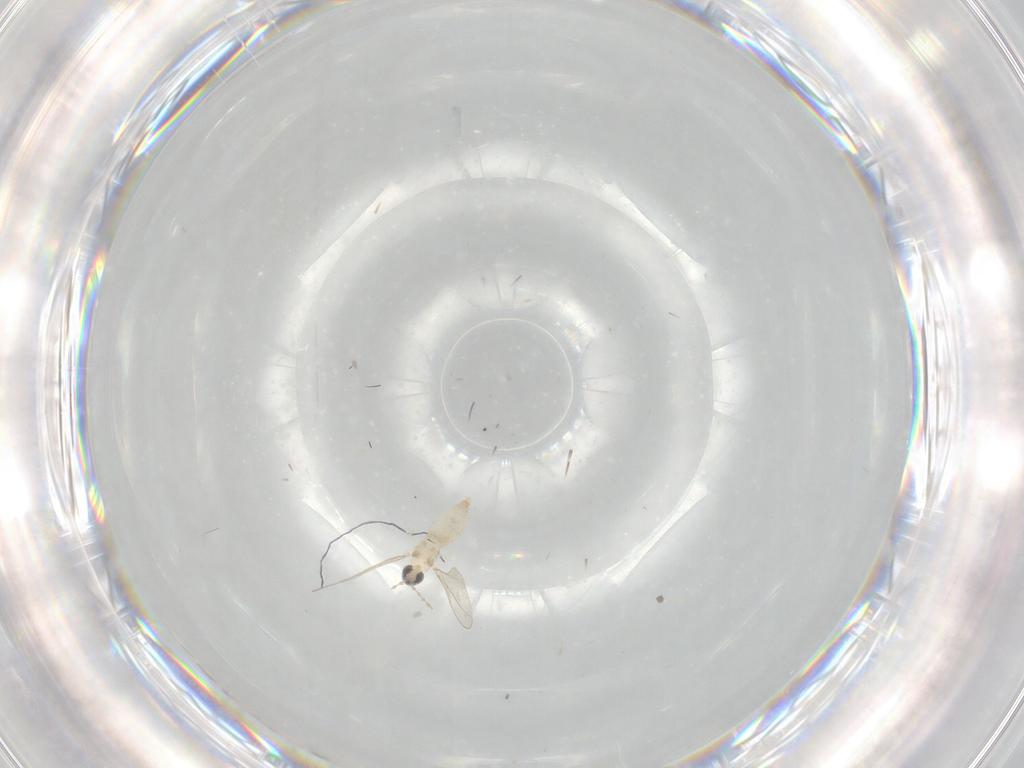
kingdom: Animalia
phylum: Arthropoda
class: Insecta
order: Diptera
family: Cecidomyiidae
